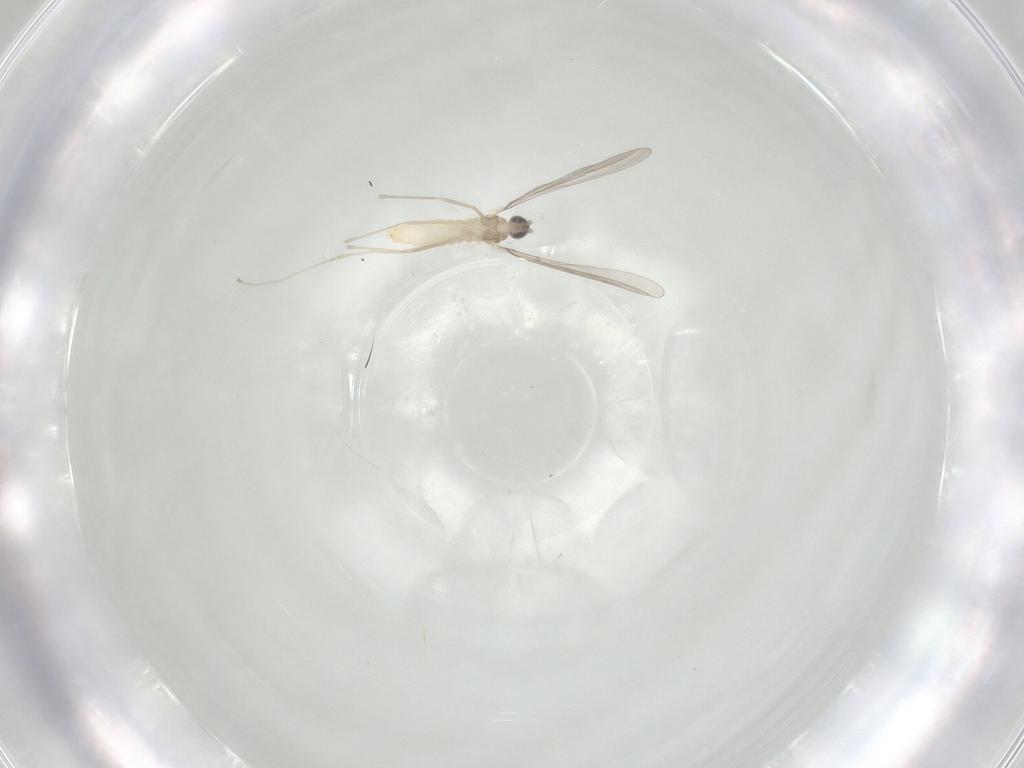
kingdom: Animalia
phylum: Arthropoda
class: Insecta
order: Diptera
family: Cecidomyiidae
